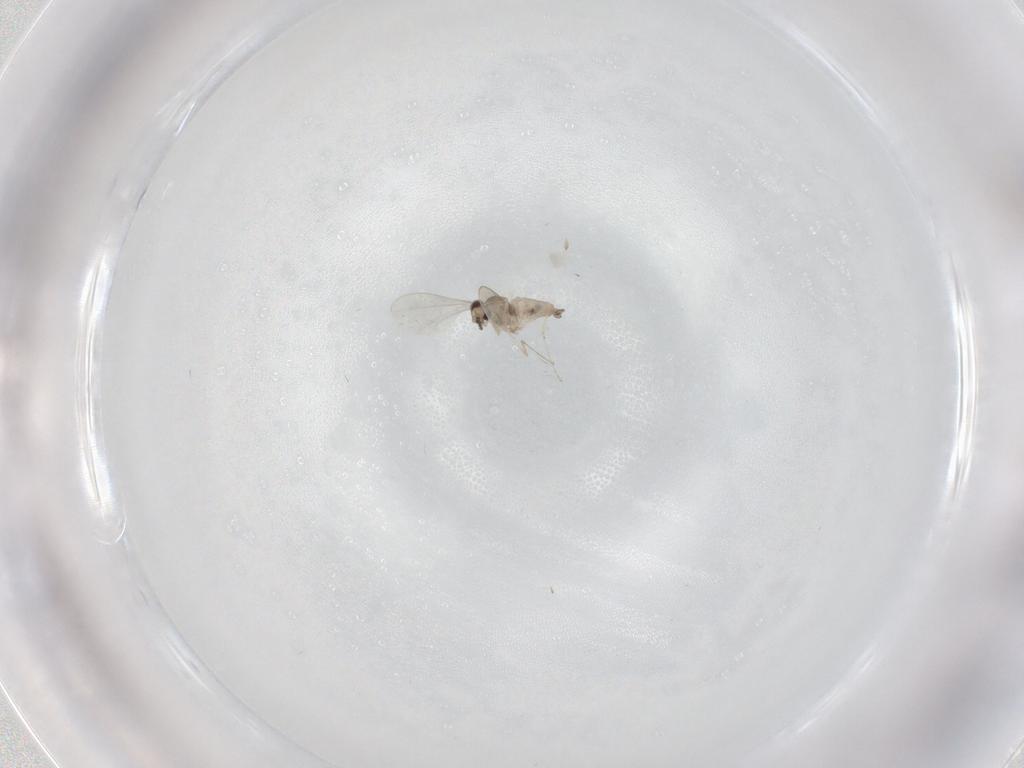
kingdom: Animalia
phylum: Arthropoda
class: Insecta
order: Diptera
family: Cecidomyiidae
